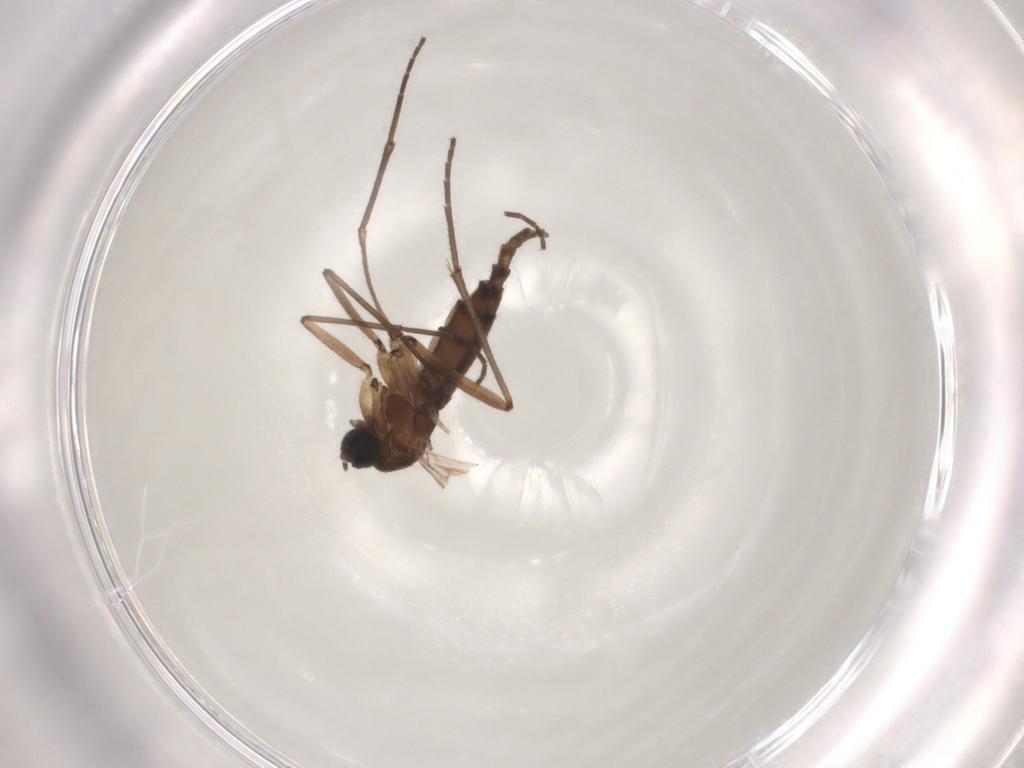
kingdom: Animalia
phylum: Arthropoda
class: Insecta
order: Diptera
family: Sciaridae
